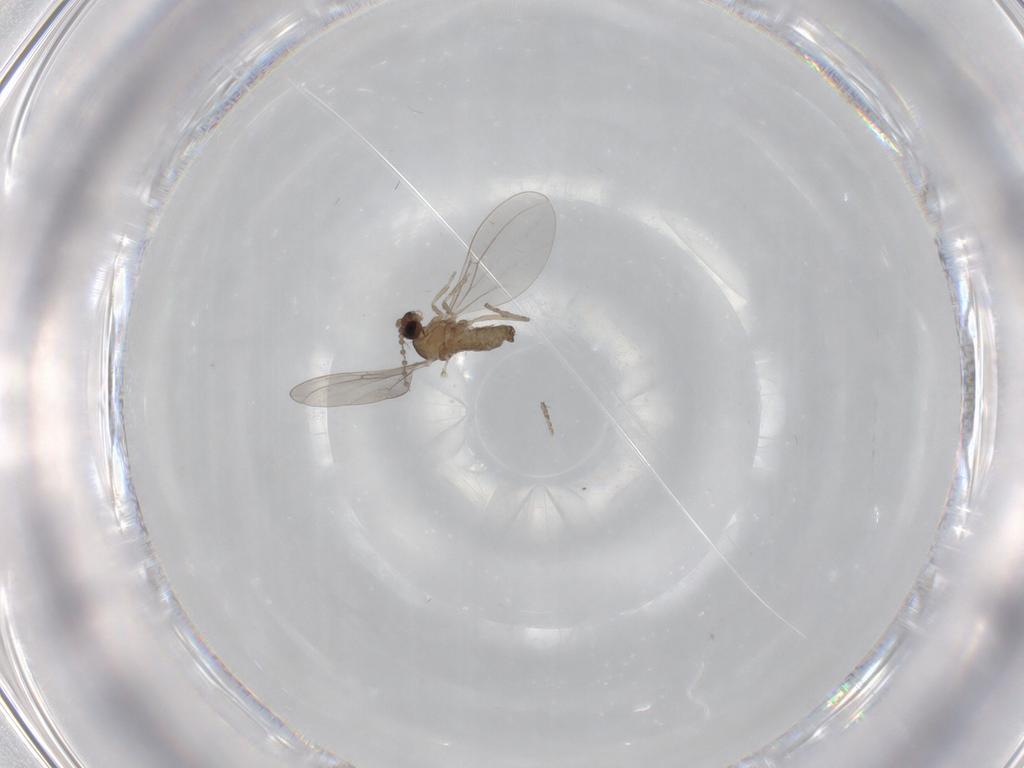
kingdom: Animalia
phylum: Arthropoda
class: Insecta
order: Diptera
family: Cecidomyiidae
